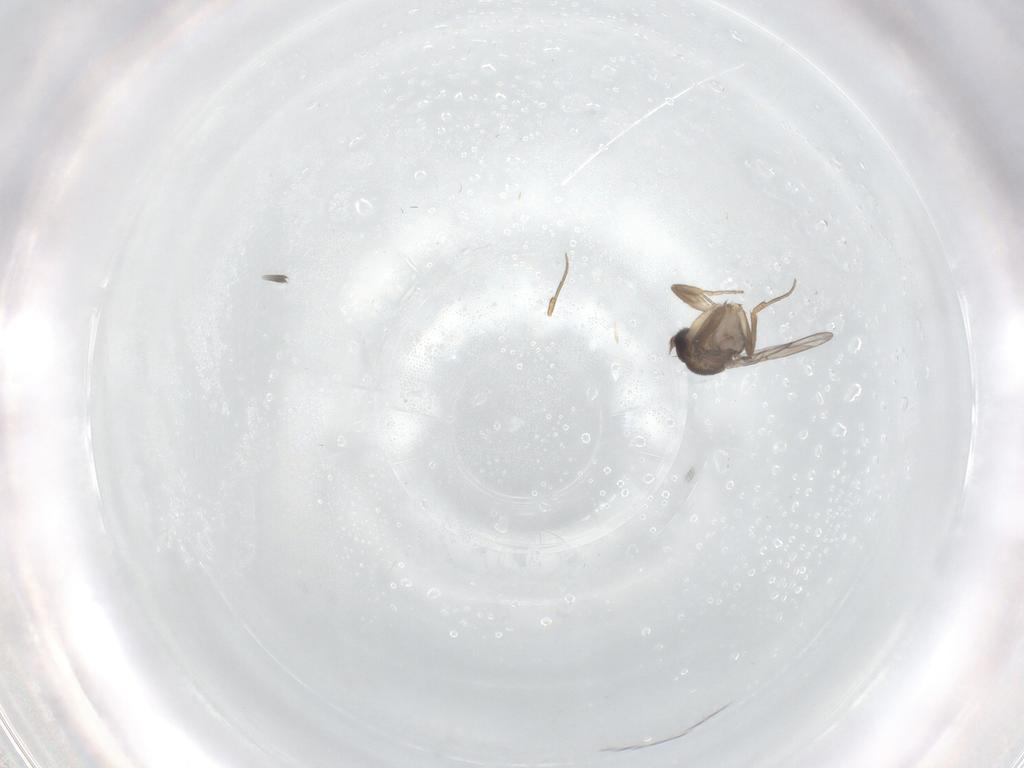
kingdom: Animalia
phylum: Arthropoda
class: Insecta
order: Diptera
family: Phoridae
